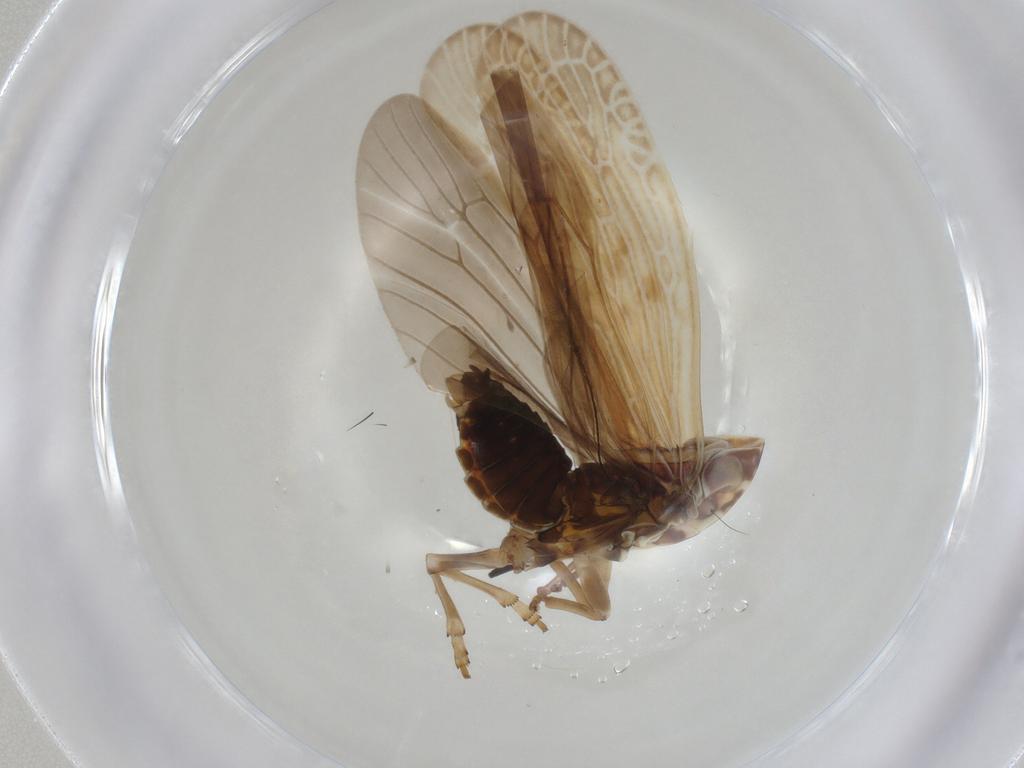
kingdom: Animalia
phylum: Arthropoda
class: Insecta
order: Hemiptera
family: Achilidae
